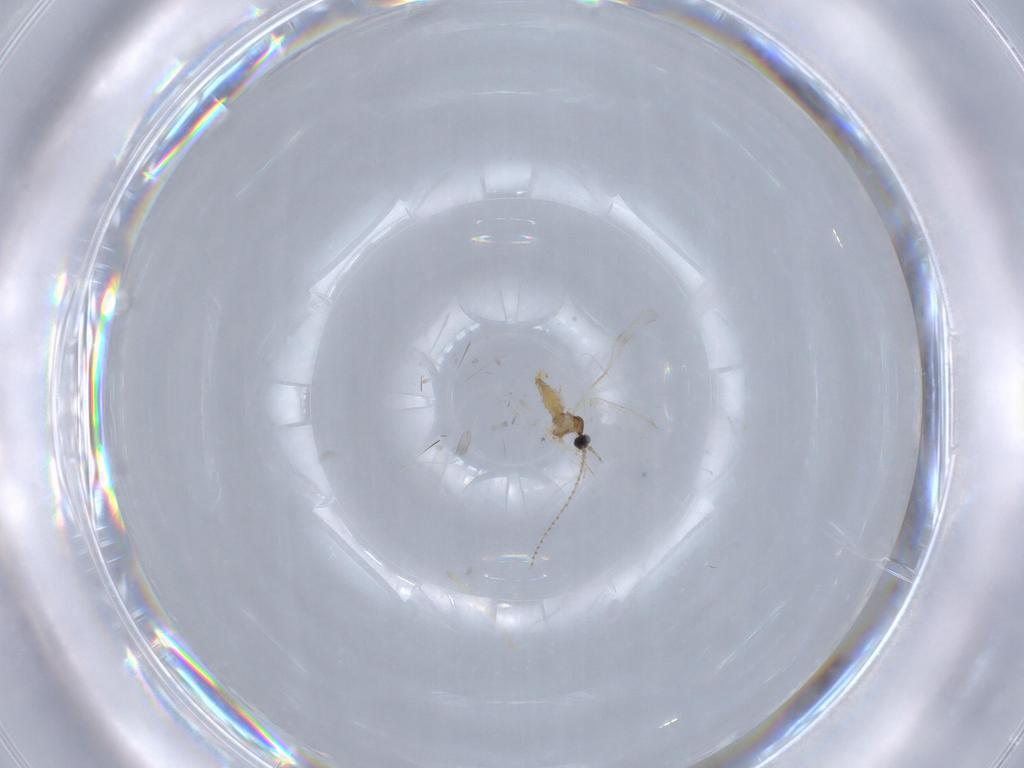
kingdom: Animalia
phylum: Arthropoda
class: Insecta
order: Diptera
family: Cecidomyiidae
